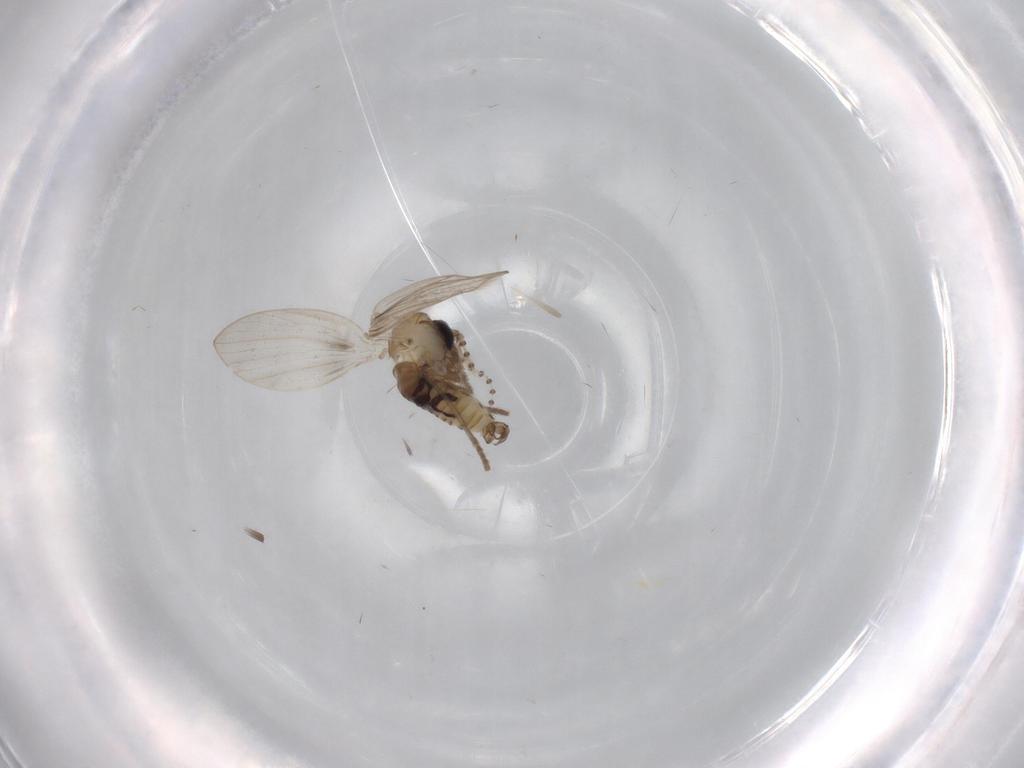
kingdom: Animalia
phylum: Arthropoda
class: Insecta
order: Diptera
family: Psychodidae
